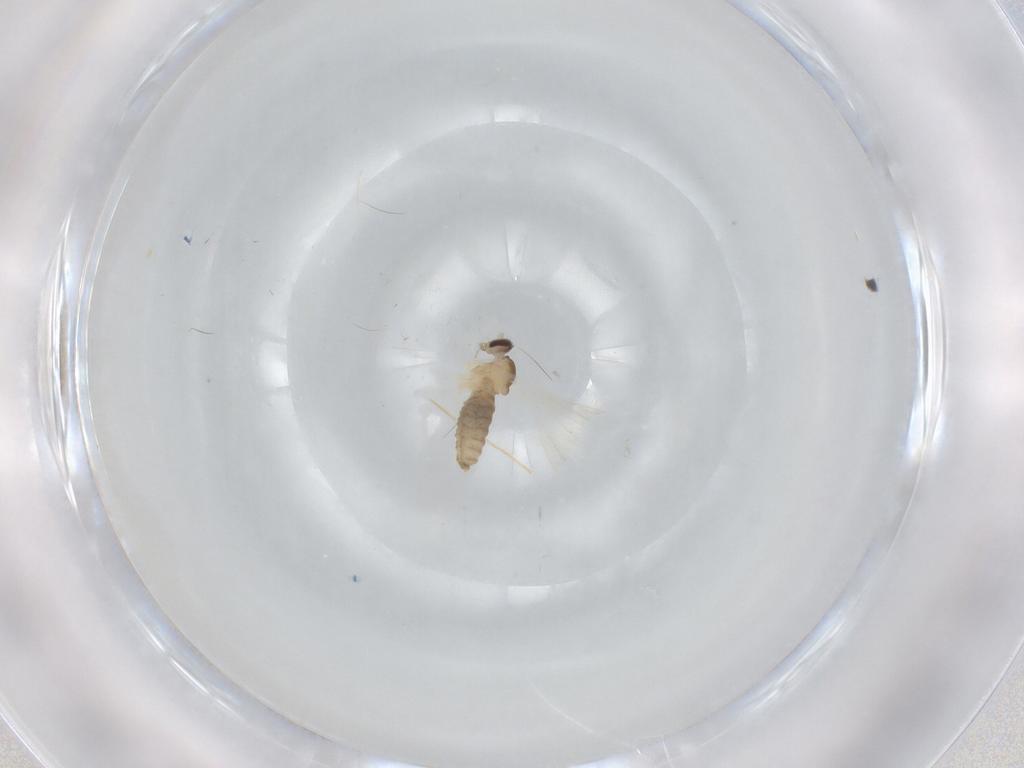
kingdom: Animalia
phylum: Arthropoda
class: Insecta
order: Diptera
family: Cecidomyiidae
